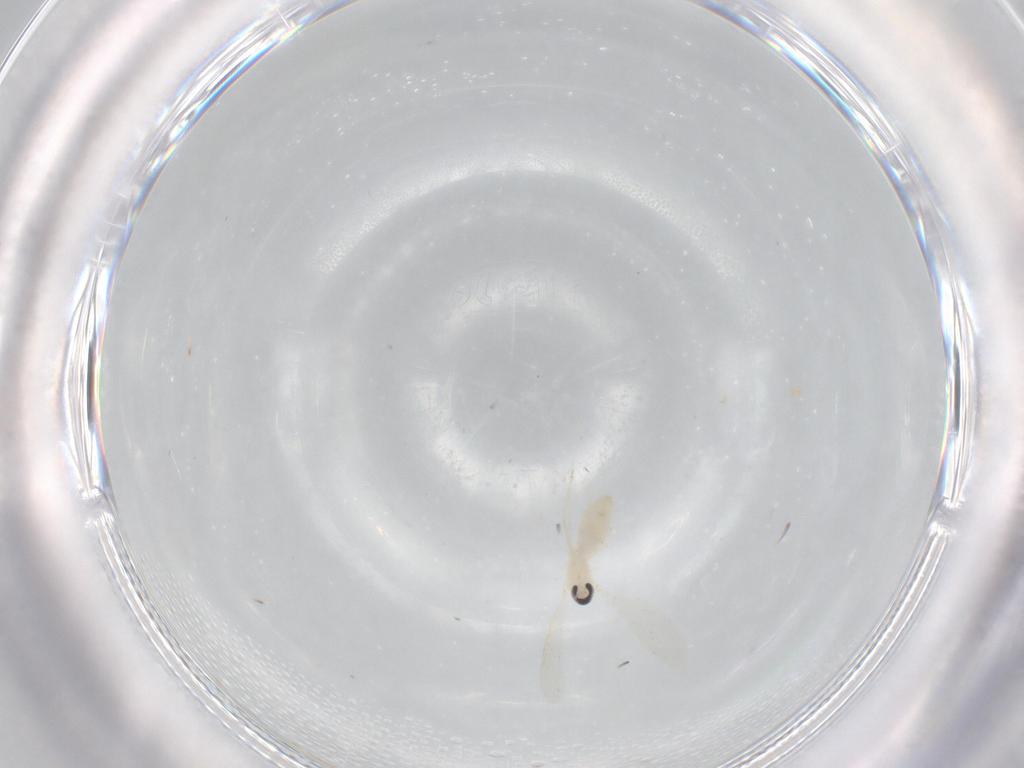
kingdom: Animalia
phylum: Arthropoda
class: Insecta
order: Diptera
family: Cecidomyiidae
